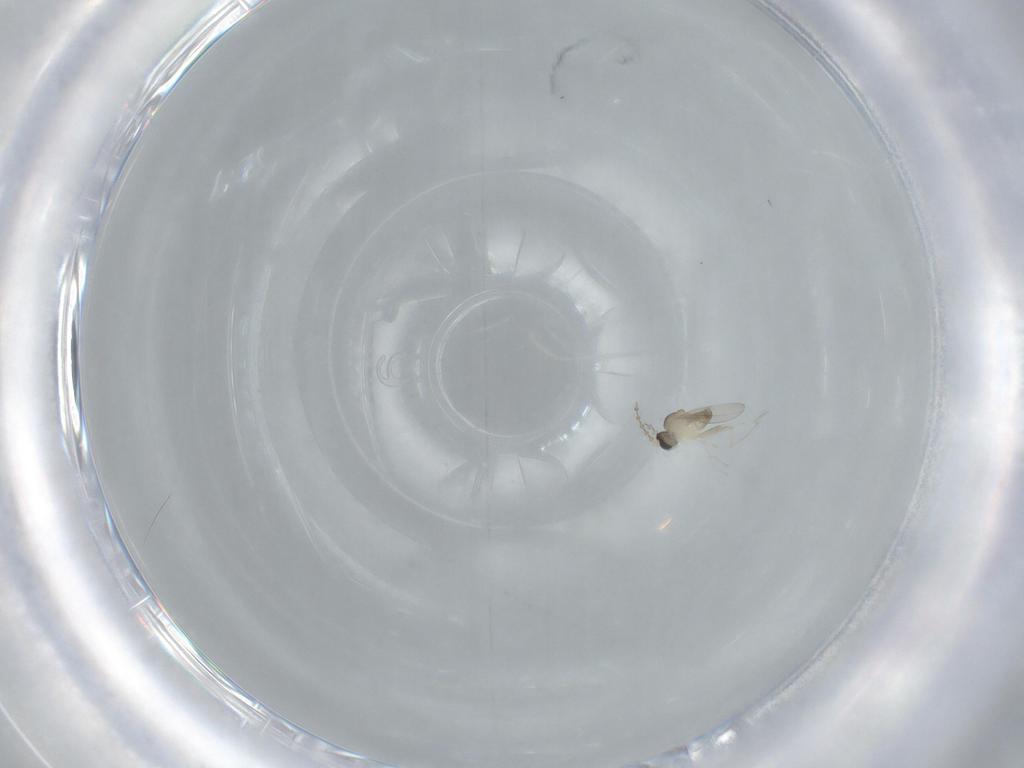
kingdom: Animalia
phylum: Arthropoda
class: Insecta
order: Diptera
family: Cecidomyiidae
